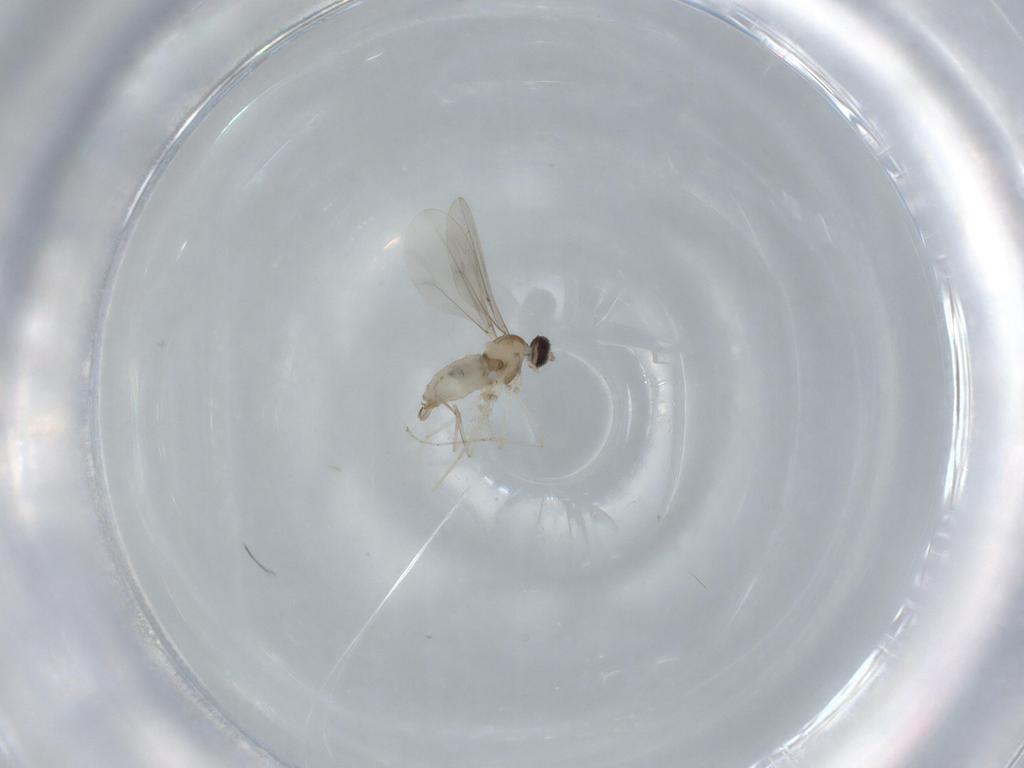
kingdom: Animalia
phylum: Arthropoda
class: Insecta
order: Diptera
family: Cecidomyiidae
